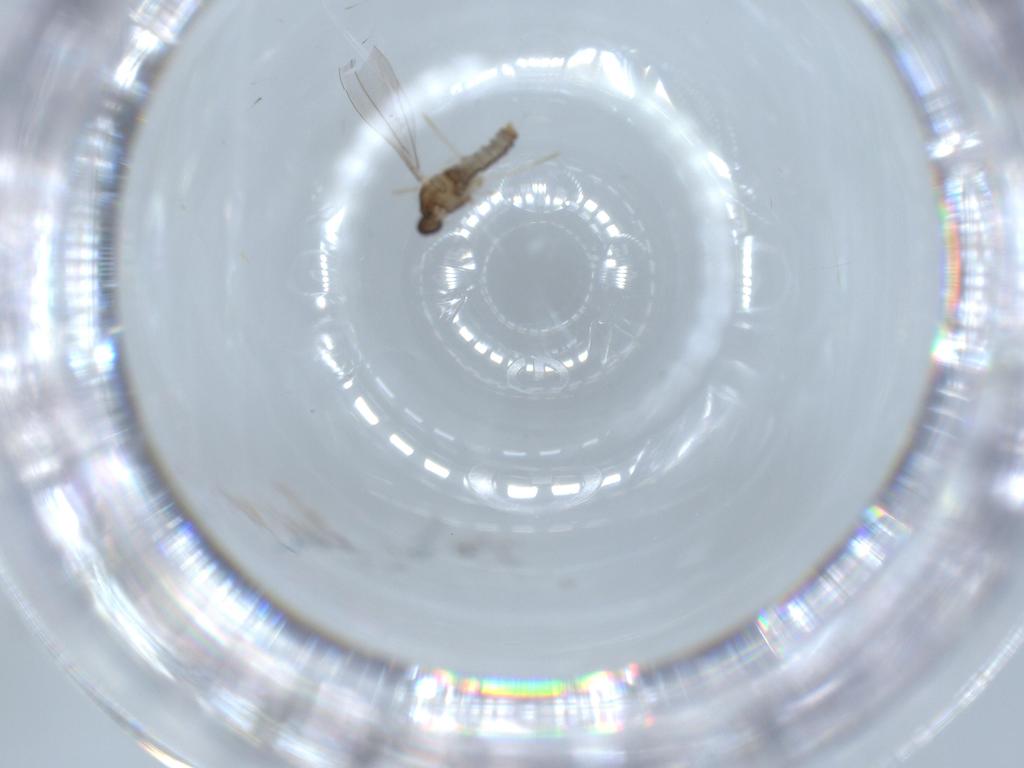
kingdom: Animalia
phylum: Arthropoda
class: Insecta
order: Diptera
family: Cecidomyiidae
